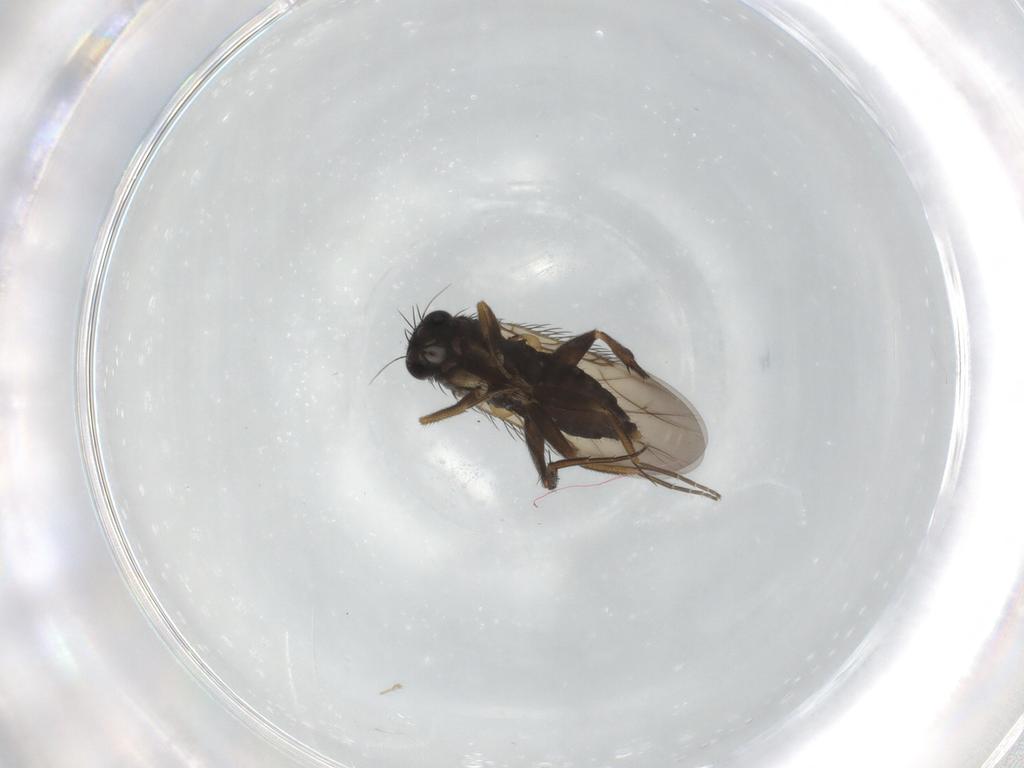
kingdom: Animalia
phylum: Arthropoda
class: Insecta
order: Diptera
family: Phoridae
